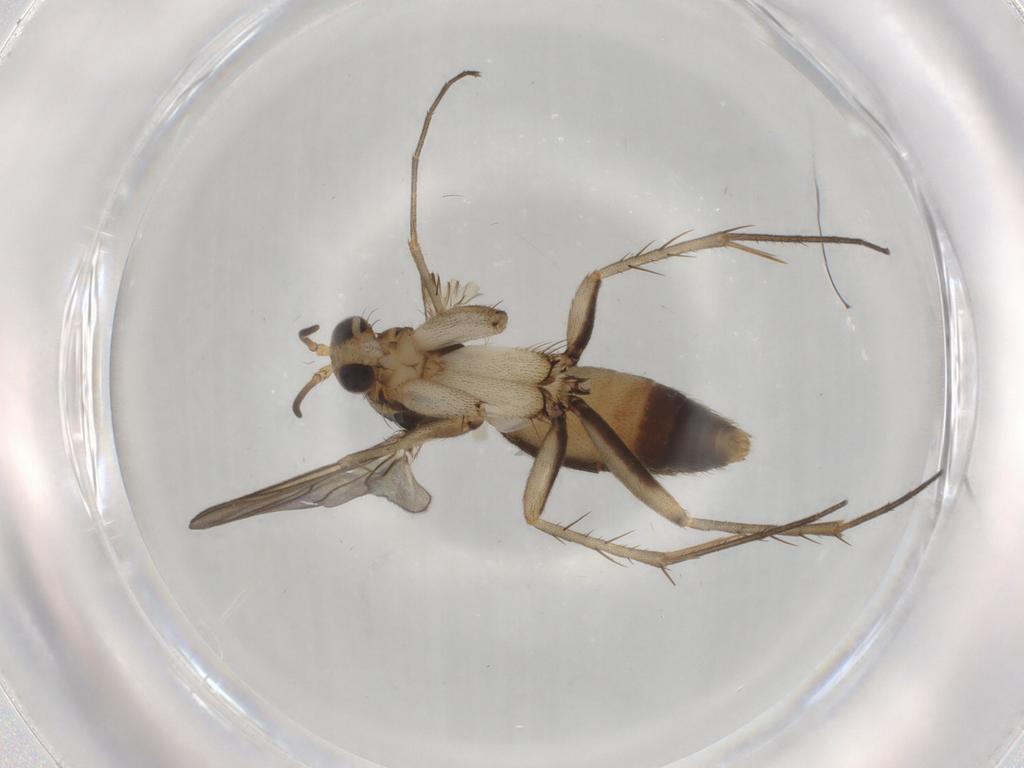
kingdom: Animalia
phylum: Arthropoda
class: Insecta
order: Diptera
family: Mycetophilidae
